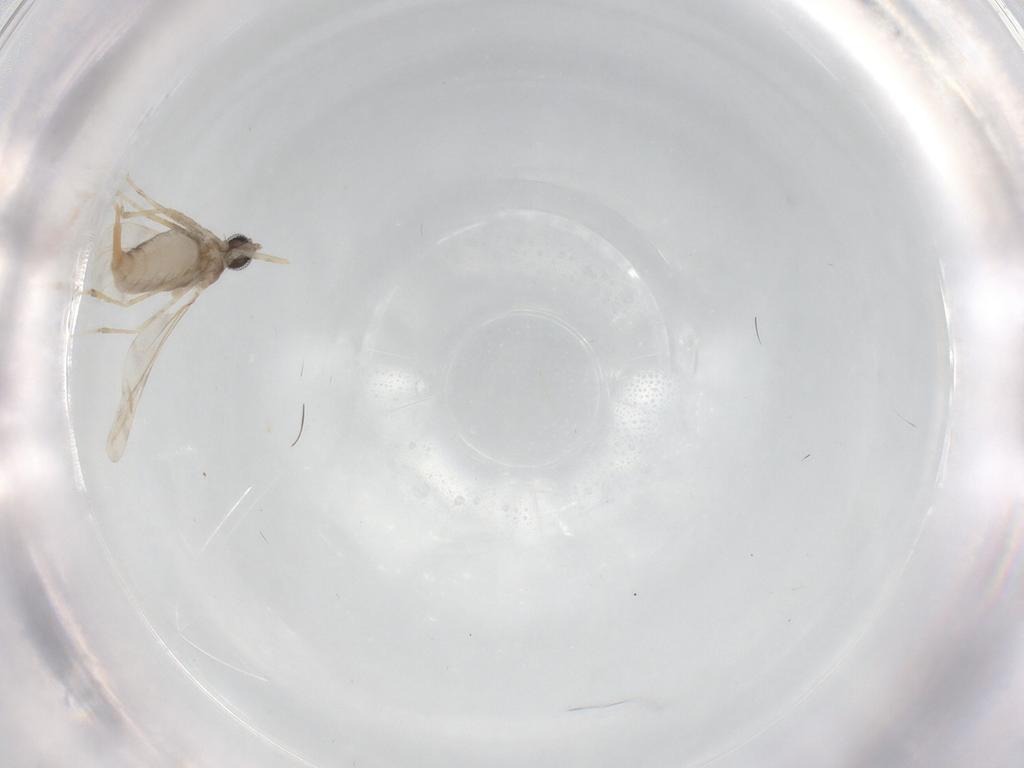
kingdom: Animalia
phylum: Arthropoda
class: Insecta
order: Diptera
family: Cecidomyiidae
